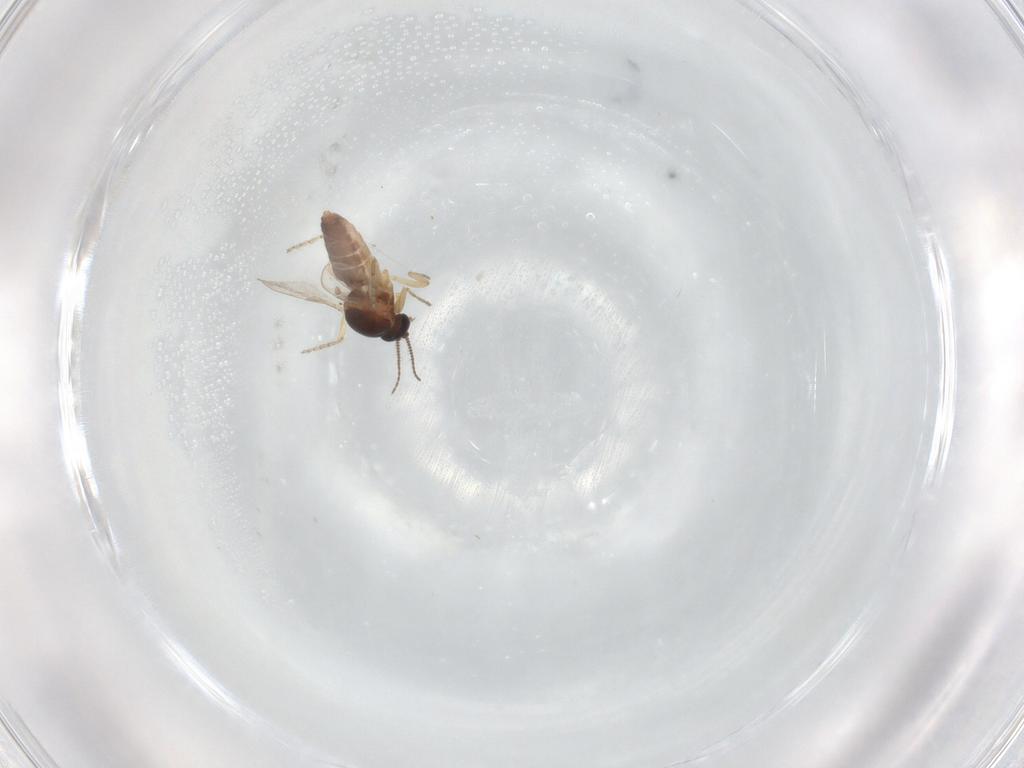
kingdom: Animalia
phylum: Arthropoda
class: Insecta
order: Diptera
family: Ceratopogonidae
